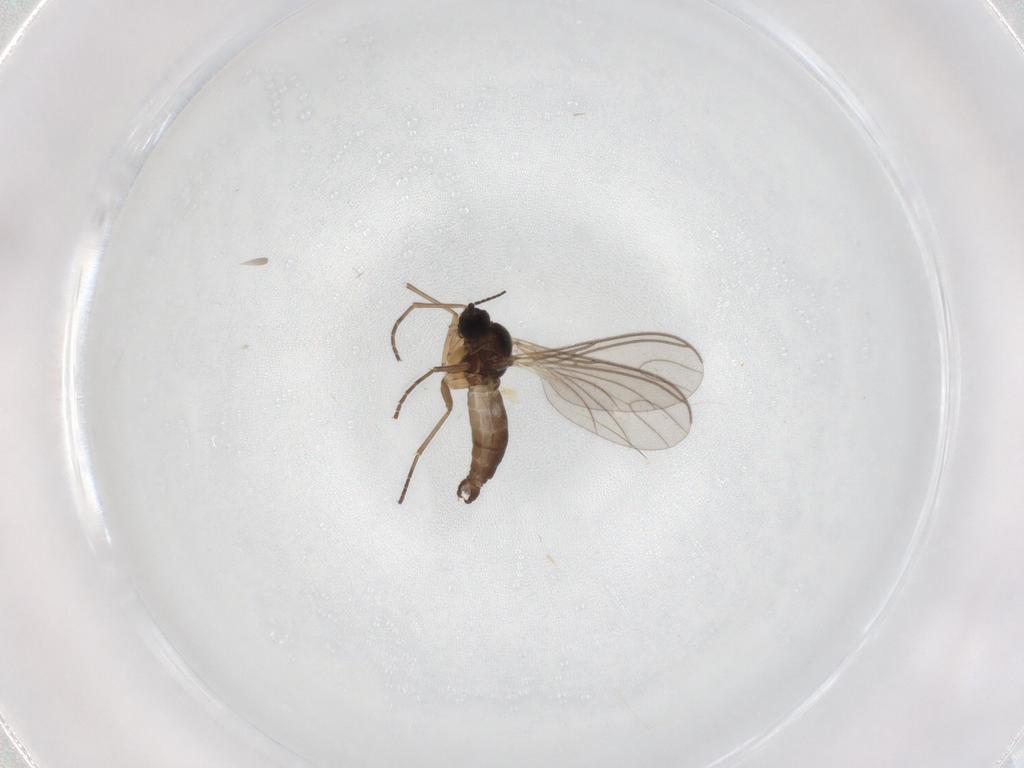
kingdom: Animalia
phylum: Arthropoda
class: Insecta
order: Diptera
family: Sciaridae
